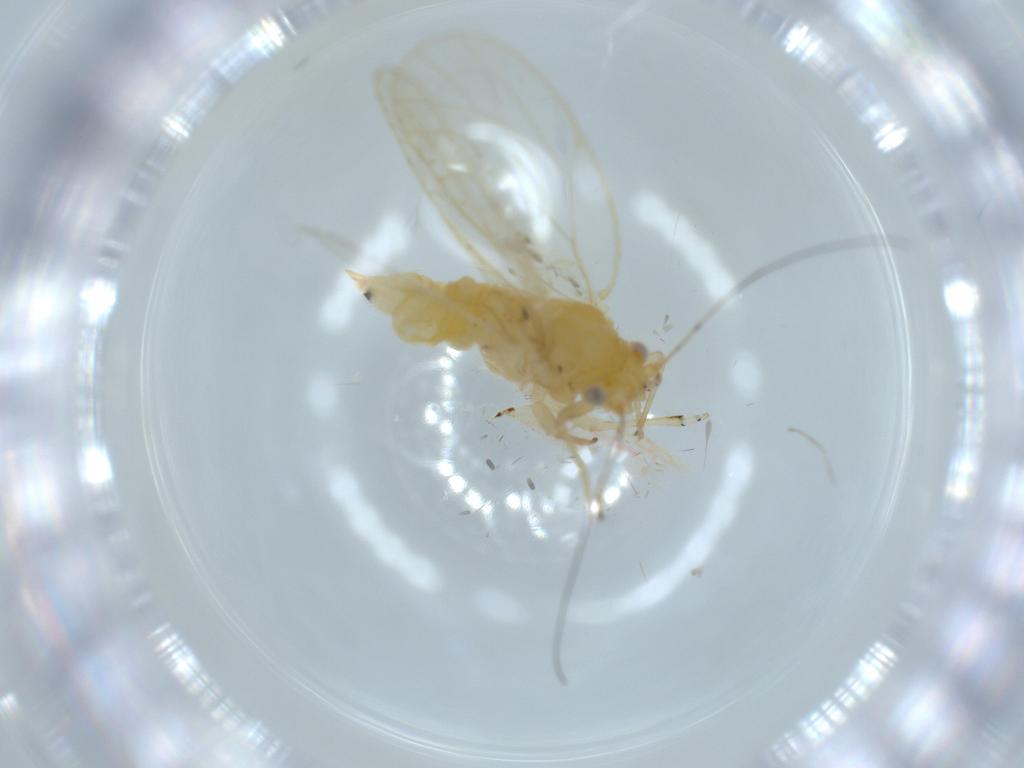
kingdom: Animalia
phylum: Arthropoda
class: Insecta
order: Hemiptera
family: Psyllidae
